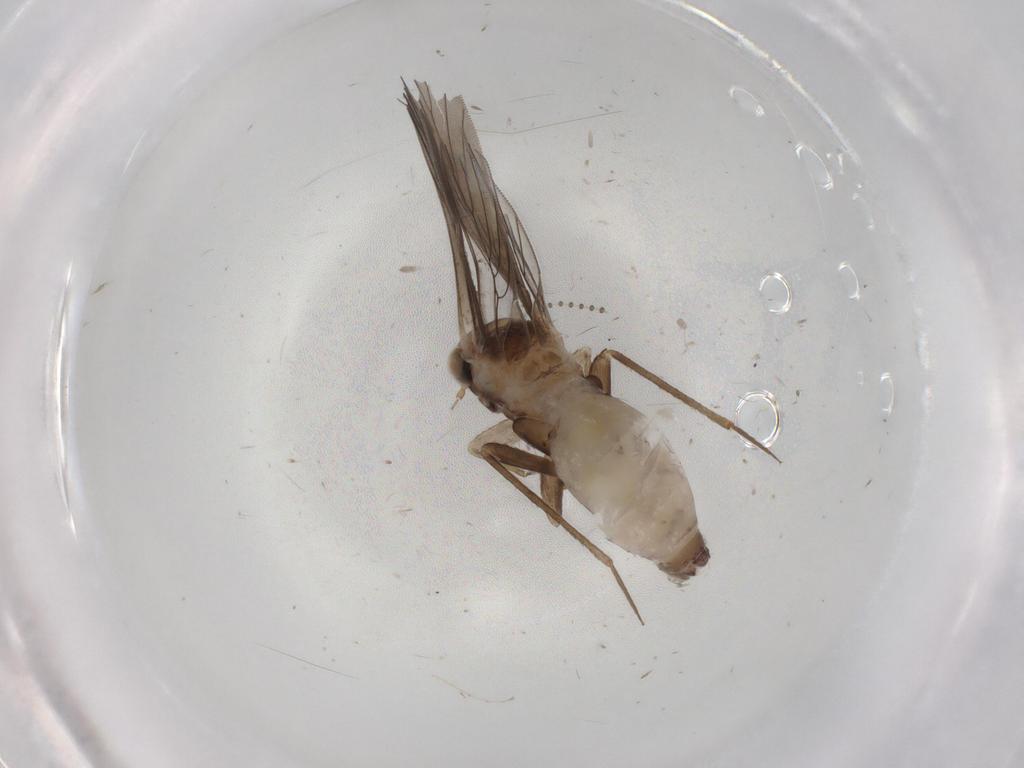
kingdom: Animalia
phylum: Arthropoda
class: Insecta
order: Psocodea
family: Lepidopsocidae
